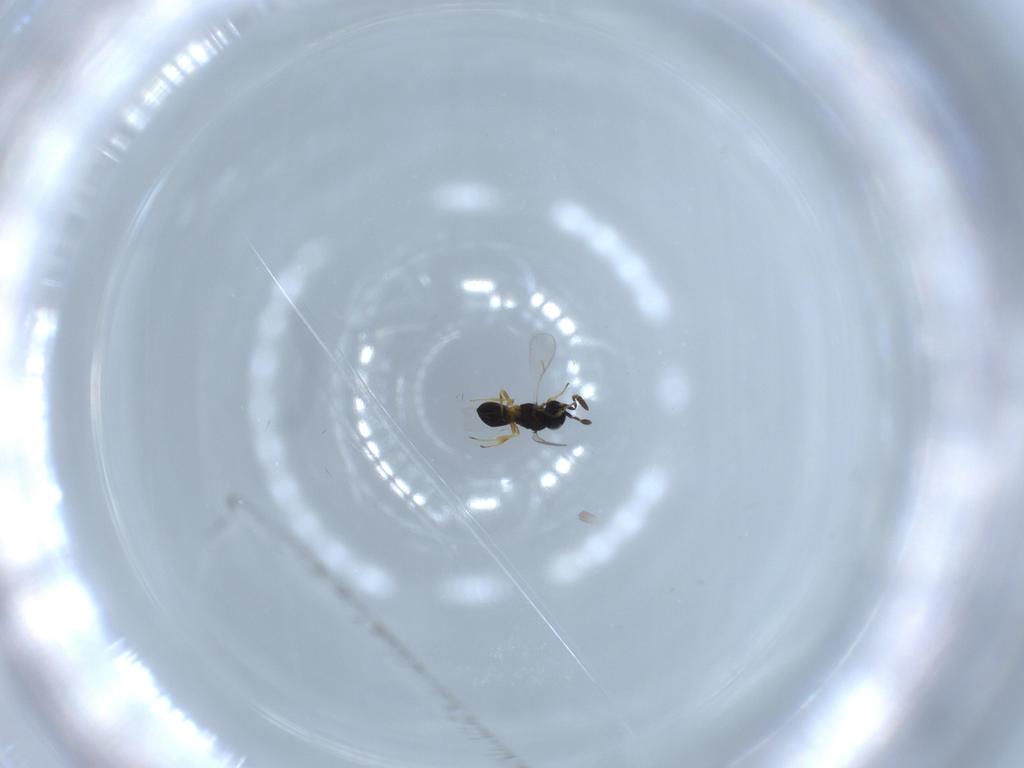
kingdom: Animalia
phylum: Arthropoda
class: Insecta
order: Hymenoptera
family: Scelionidae
